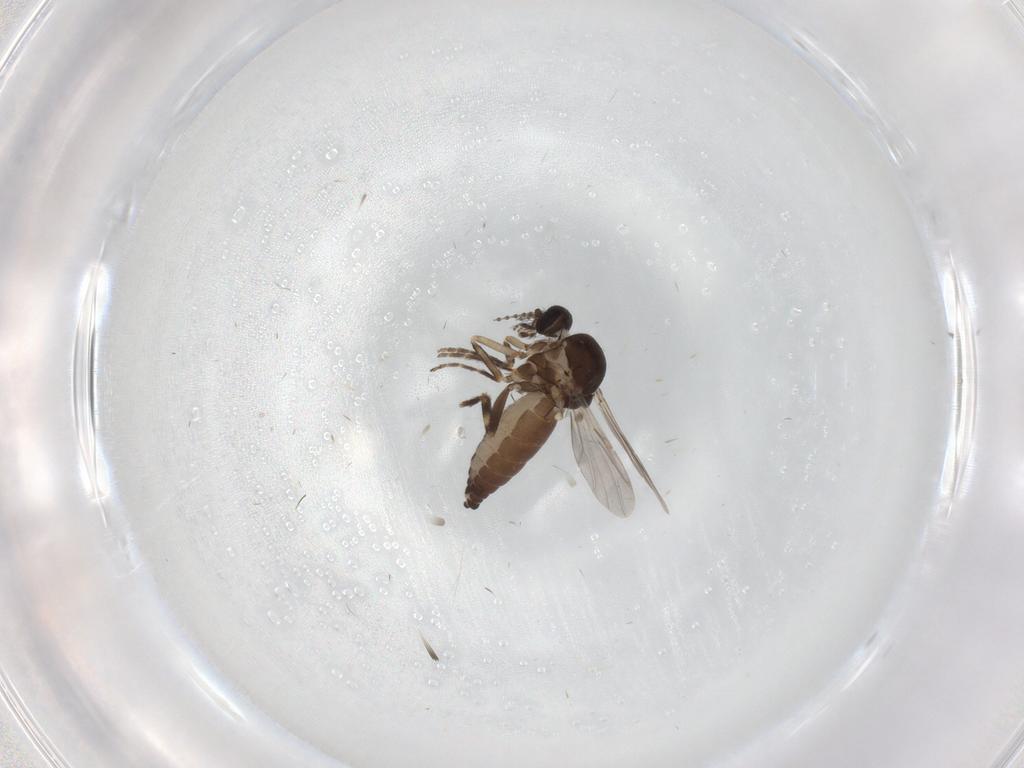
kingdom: Animalia
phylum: Arthropoda
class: Insecta
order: Diptera
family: Ceratopogonidae
